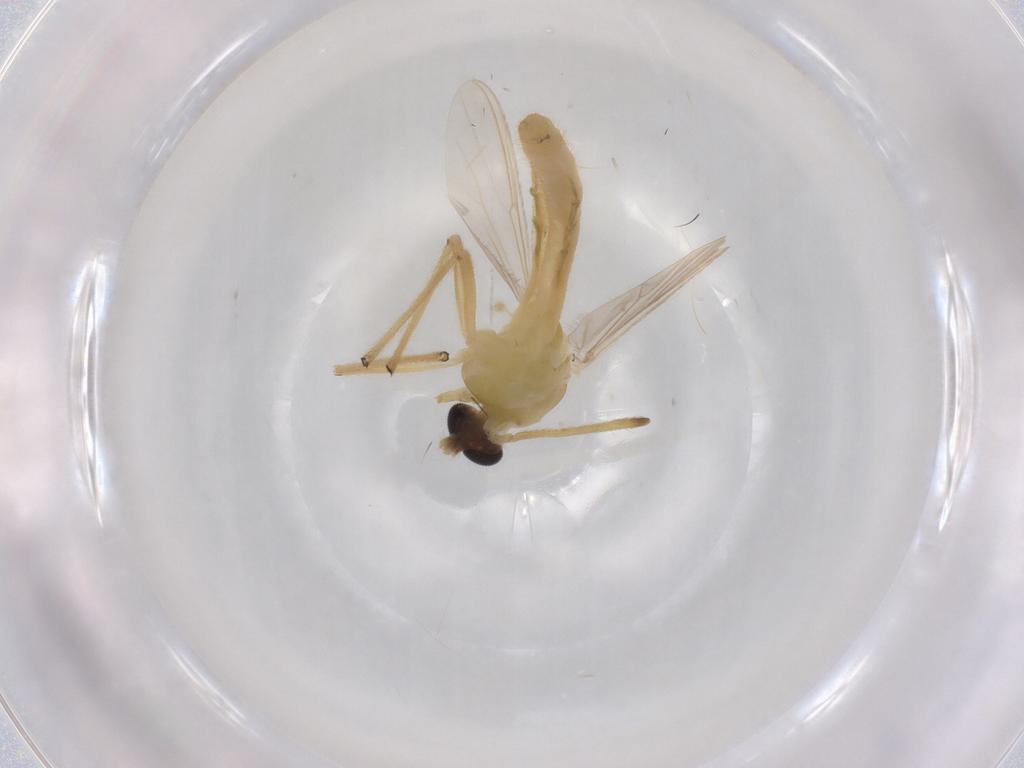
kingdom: Animalia
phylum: Arthropoda
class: Insecta
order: Diptera
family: Chironomidae
